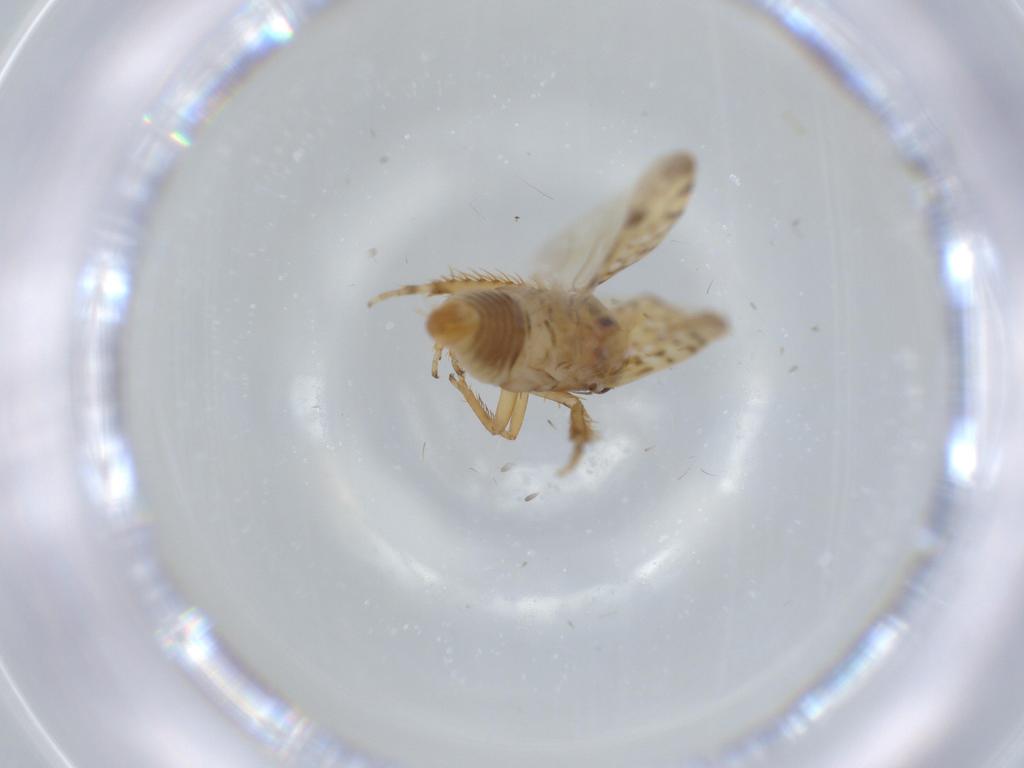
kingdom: Animalia
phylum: Arthropoda
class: Insecta
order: Hemiptera
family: Cicadellidae
